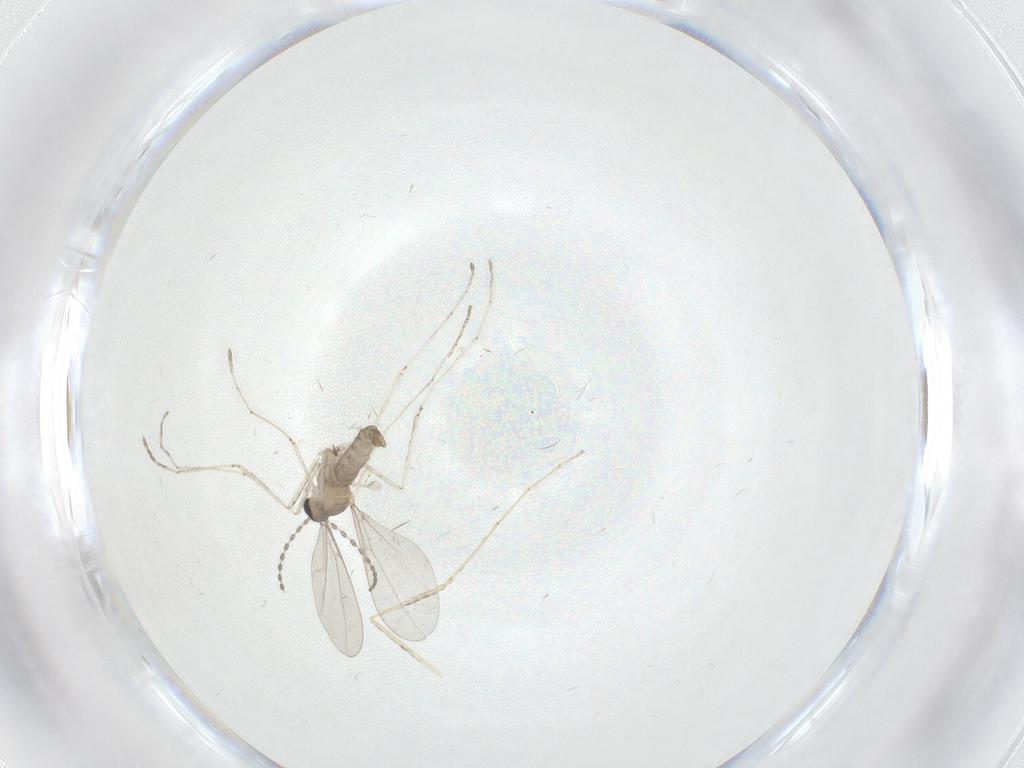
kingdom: Animalia
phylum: Arthropoda
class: Insecta
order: Diptera
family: Cecidomyiidae
